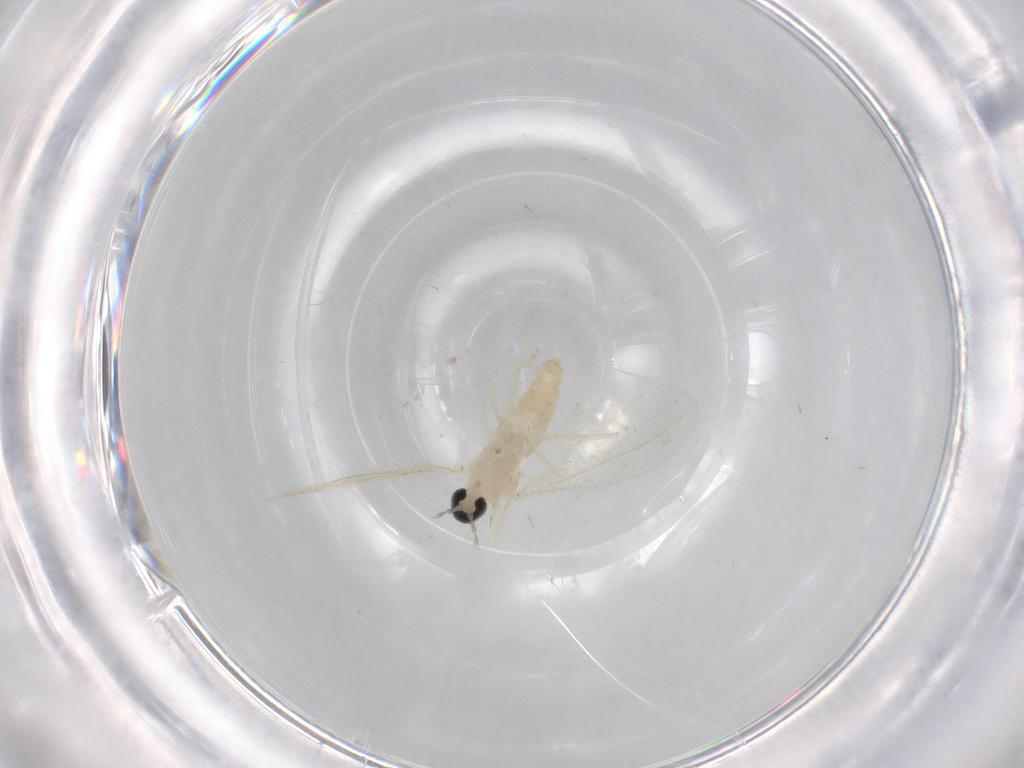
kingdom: Animalia
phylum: Arthropoda
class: Insecta
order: Diptera
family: Cecidomyiidae
